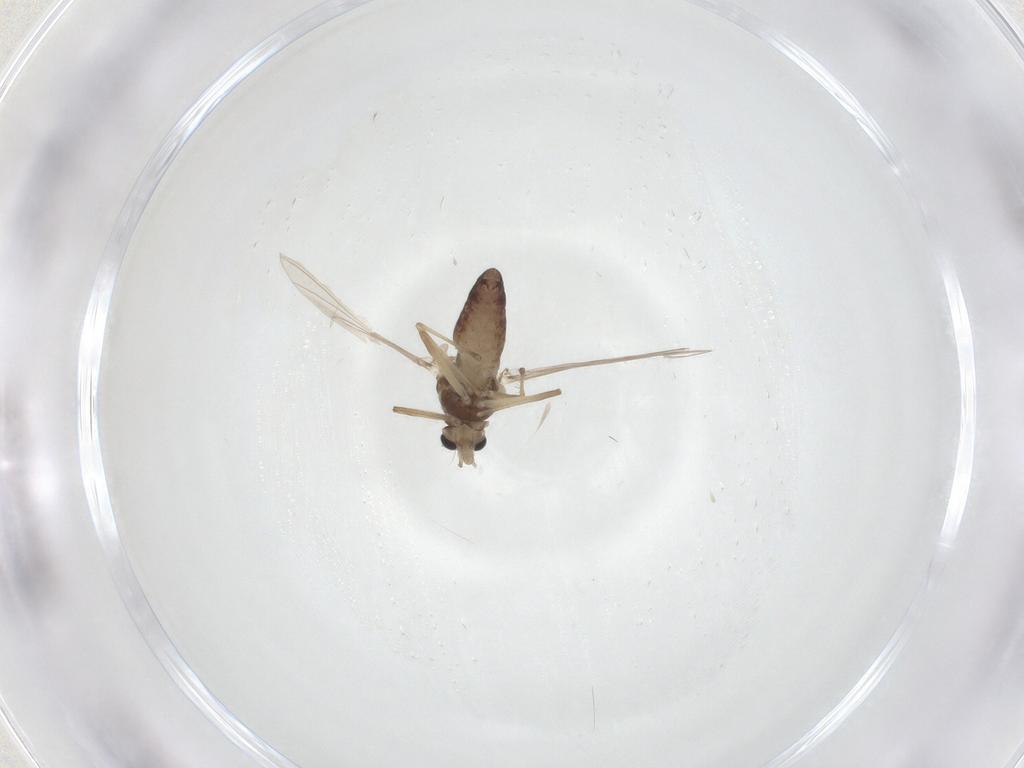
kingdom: Animalia
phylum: Arthropoda
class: Insecta
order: Diptera
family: Chironomidae
